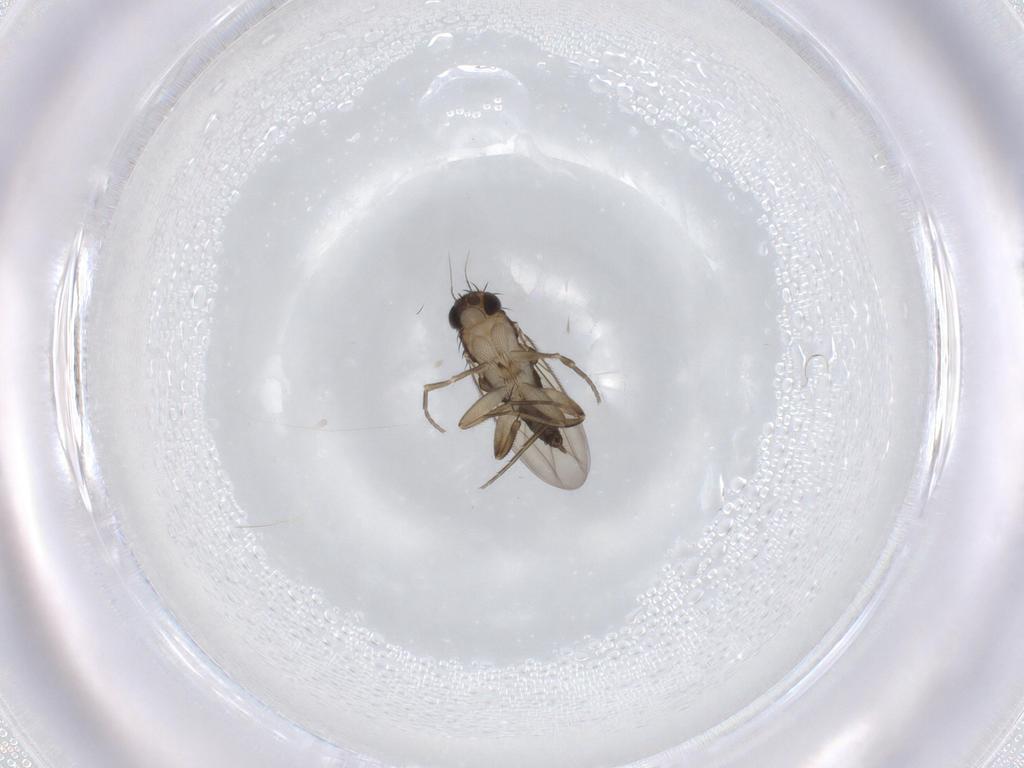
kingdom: Animalia
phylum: Arthropoda
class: Insecta
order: Diptera
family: Phoridae
